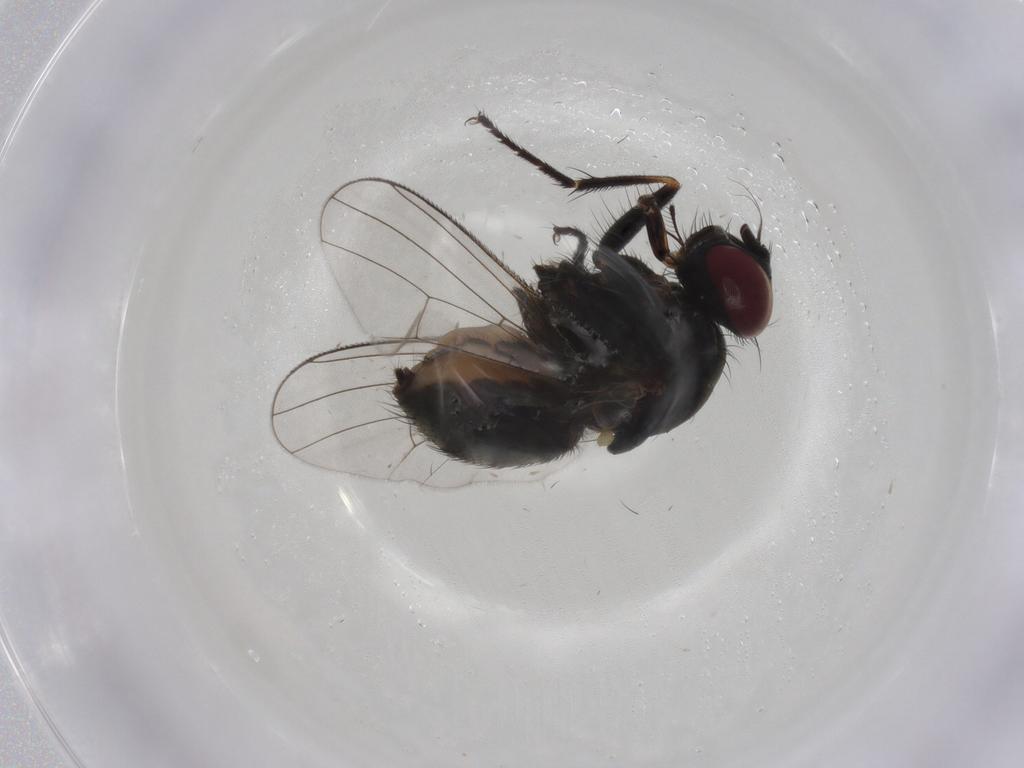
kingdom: Animalia
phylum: Arthropoda
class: Insecta
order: Diptera
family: Muscidae
